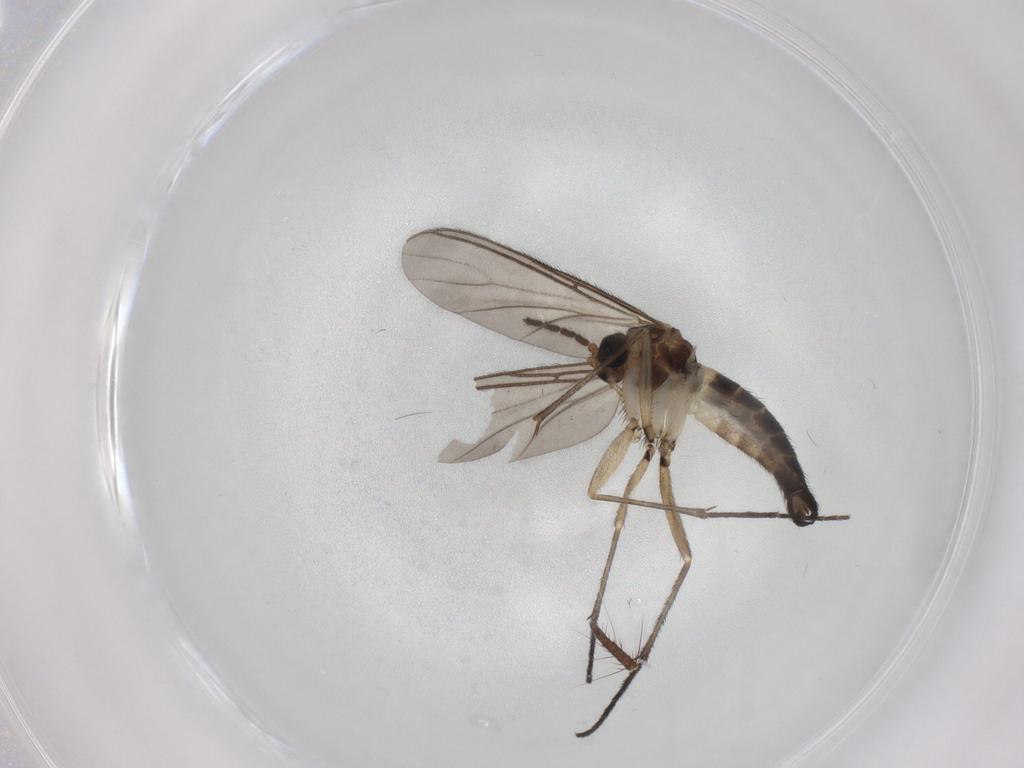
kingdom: Animalia
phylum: Arthropoda
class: Insecta
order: Diptera
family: Sciaridae
